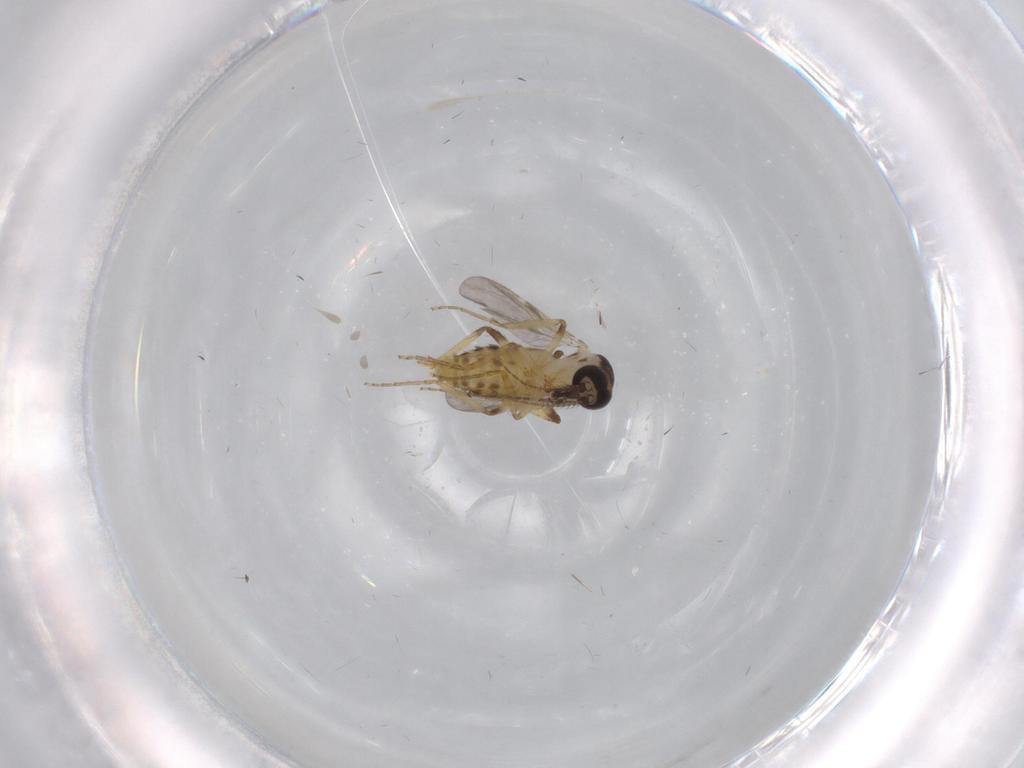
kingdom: Animalia
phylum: Arthropoda
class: Insecta
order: Diptera
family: Sciaridae
